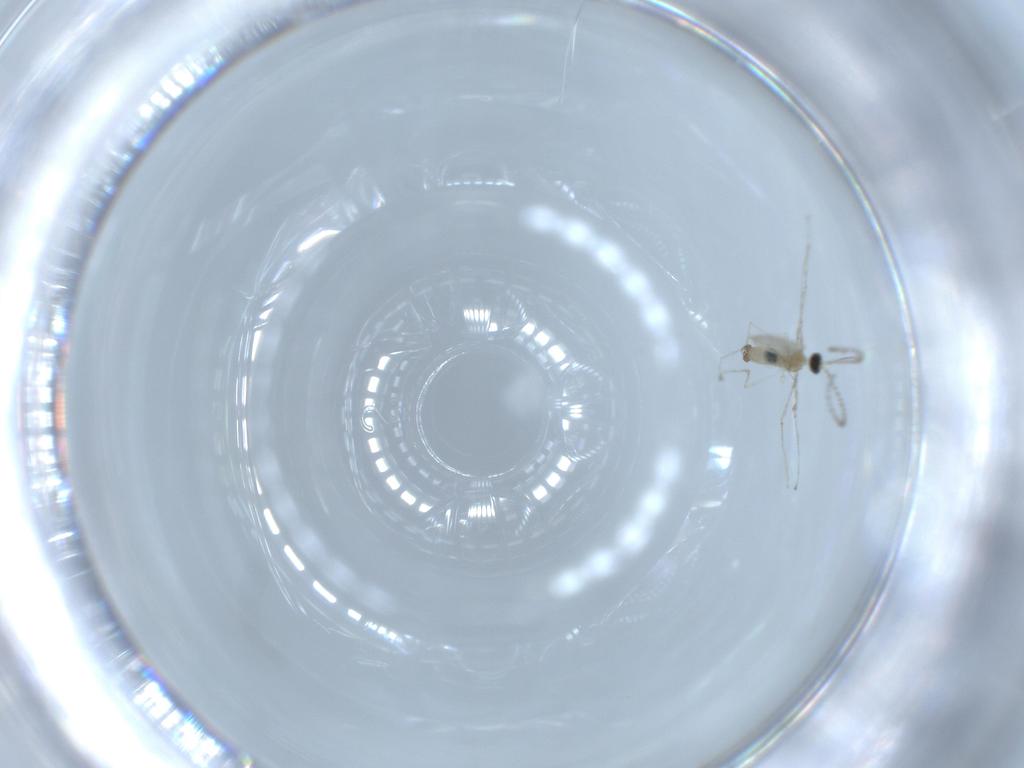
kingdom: Animalia
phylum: Arthropoda
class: Insecta
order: Diptera
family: Cecidomyiidae
